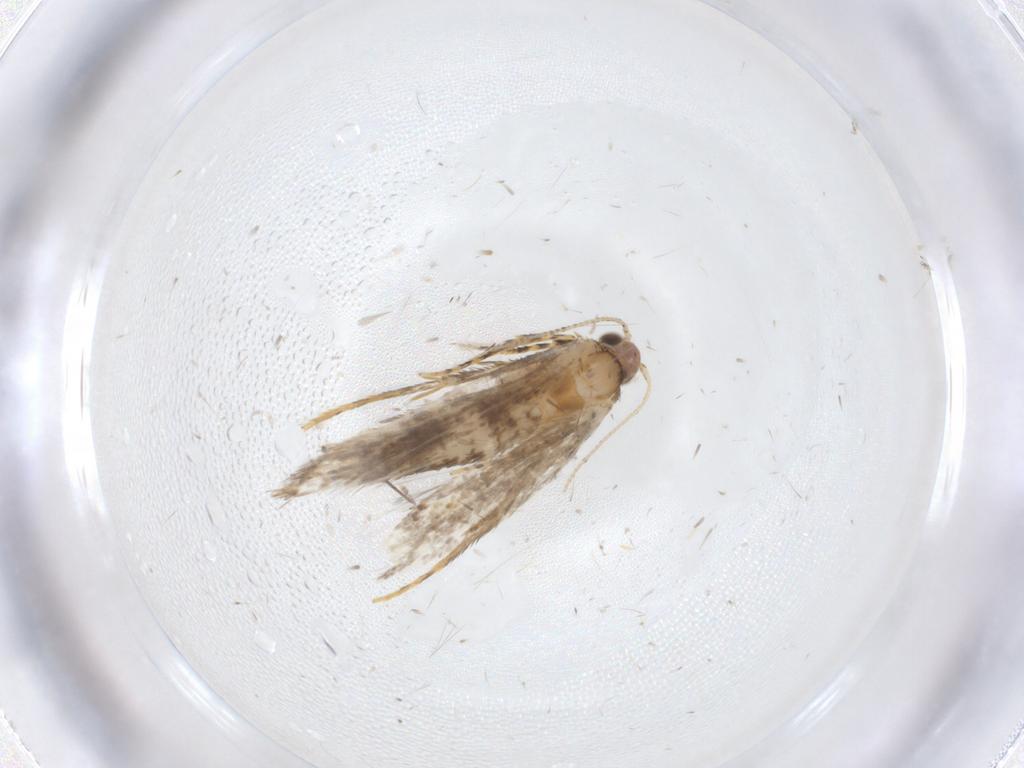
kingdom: Animalia
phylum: Arthropoda
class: Insecta
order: Lepidoptera
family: Tineidae
